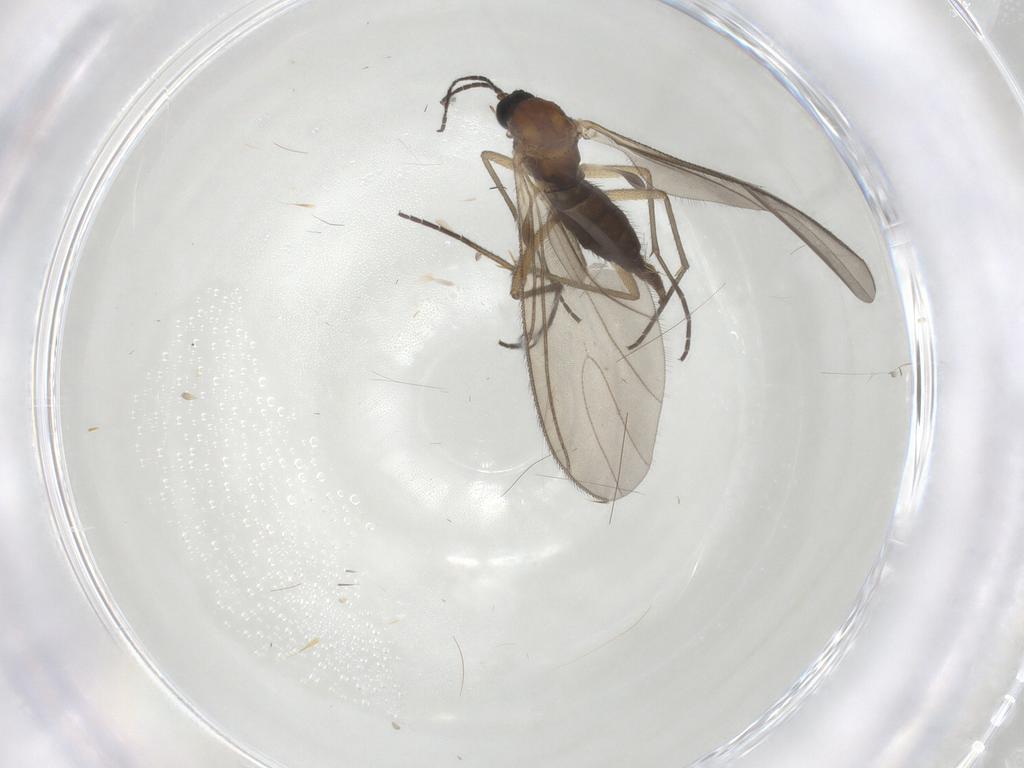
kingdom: Animalia
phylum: Arthropoda
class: Insecta
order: Diptera
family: Sciaridae
